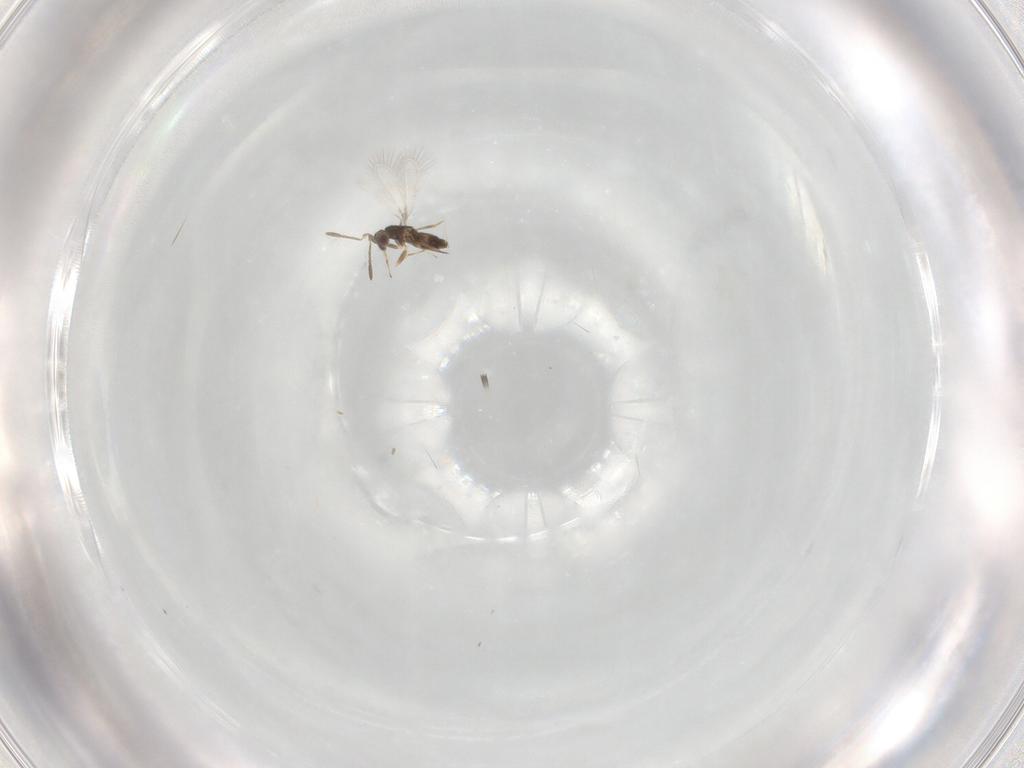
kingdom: Animalia
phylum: Arthropoda
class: Insecta
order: Hymenoptera
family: Mymaridae
